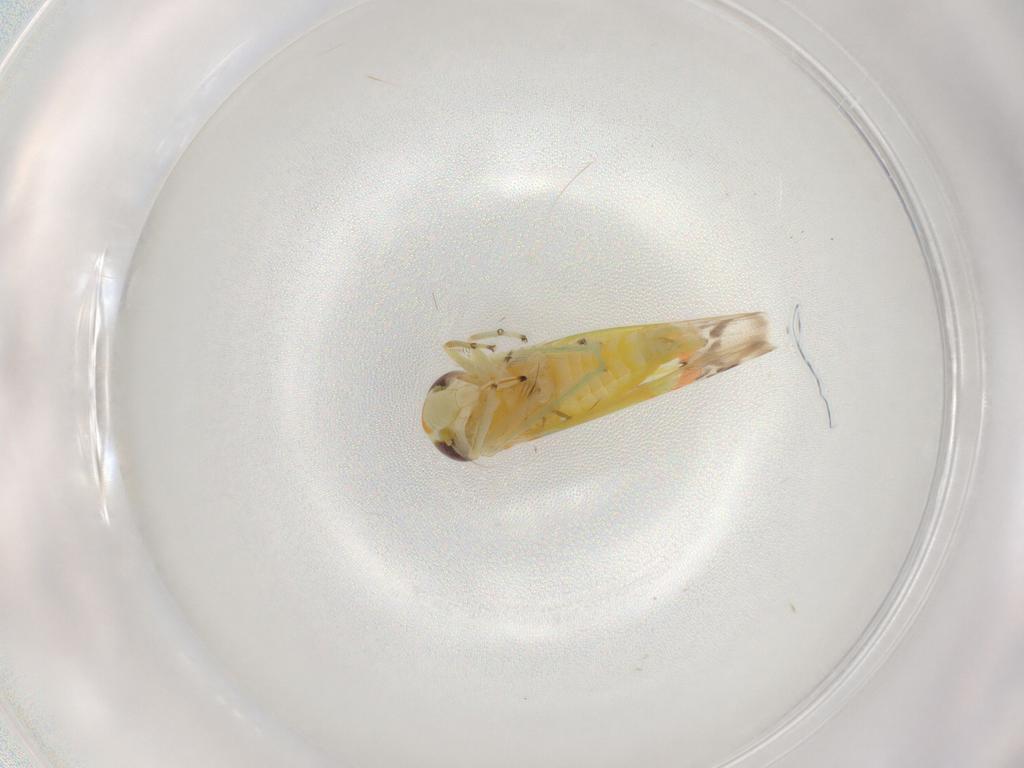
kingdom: Animalia
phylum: Arthropoda
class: Insecta
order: Hemiptera
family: Cicadellidae
